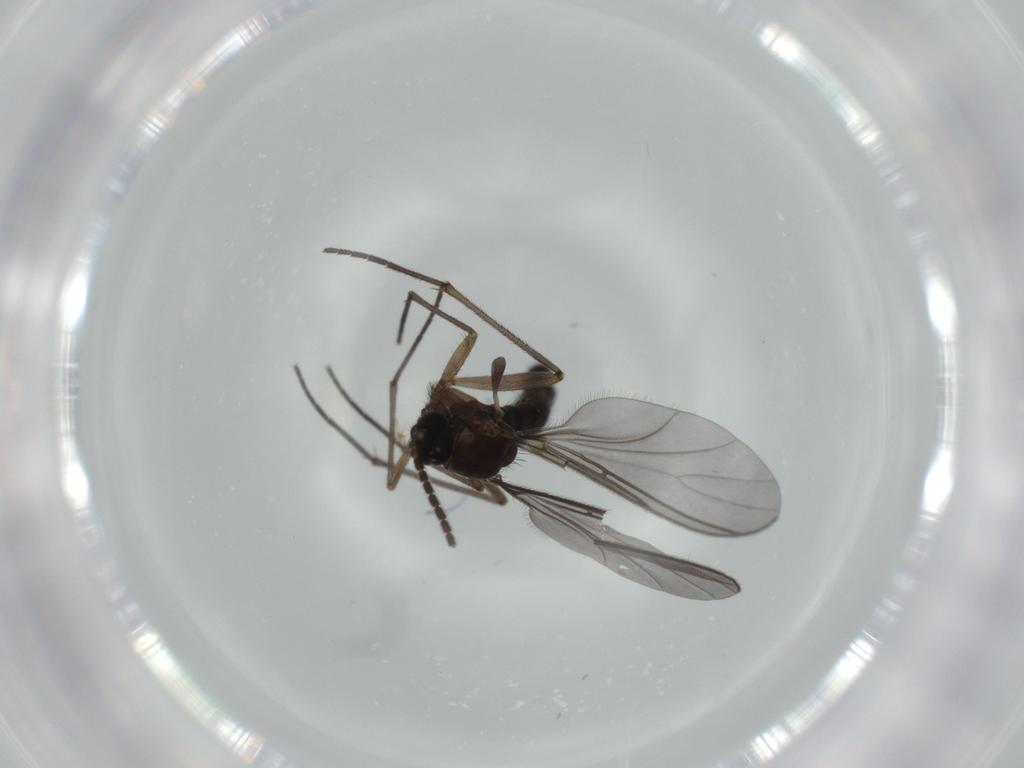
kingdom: Animalia
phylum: Arthropoda
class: Insecta
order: Diptera
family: Sciaridae
